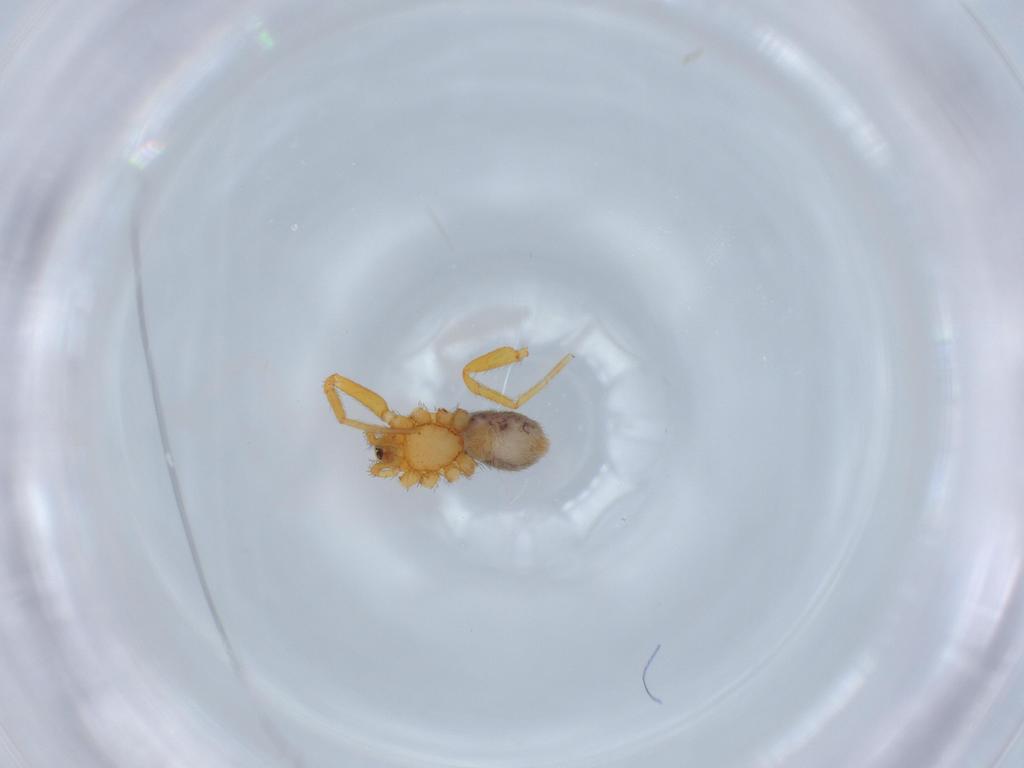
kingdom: Animalia
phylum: Arthropoda
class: Arachnida
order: Araneae
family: Oonopidae
